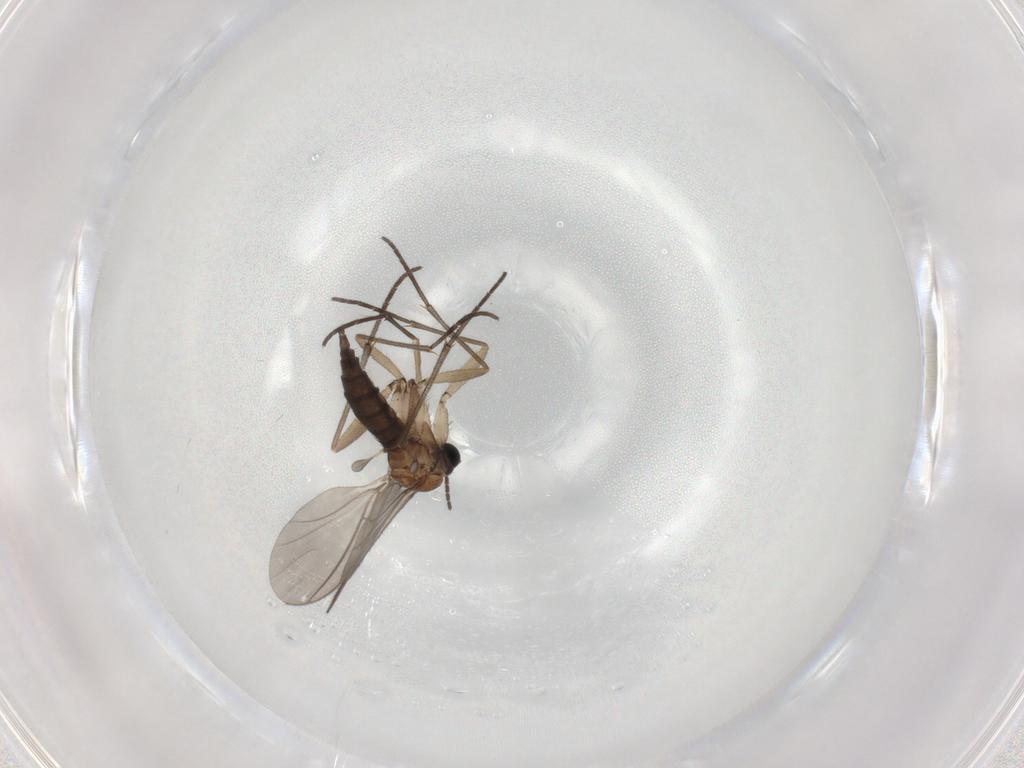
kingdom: Animalia
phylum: Arthropoda
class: Insecta
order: Diptera
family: Sciaridae
